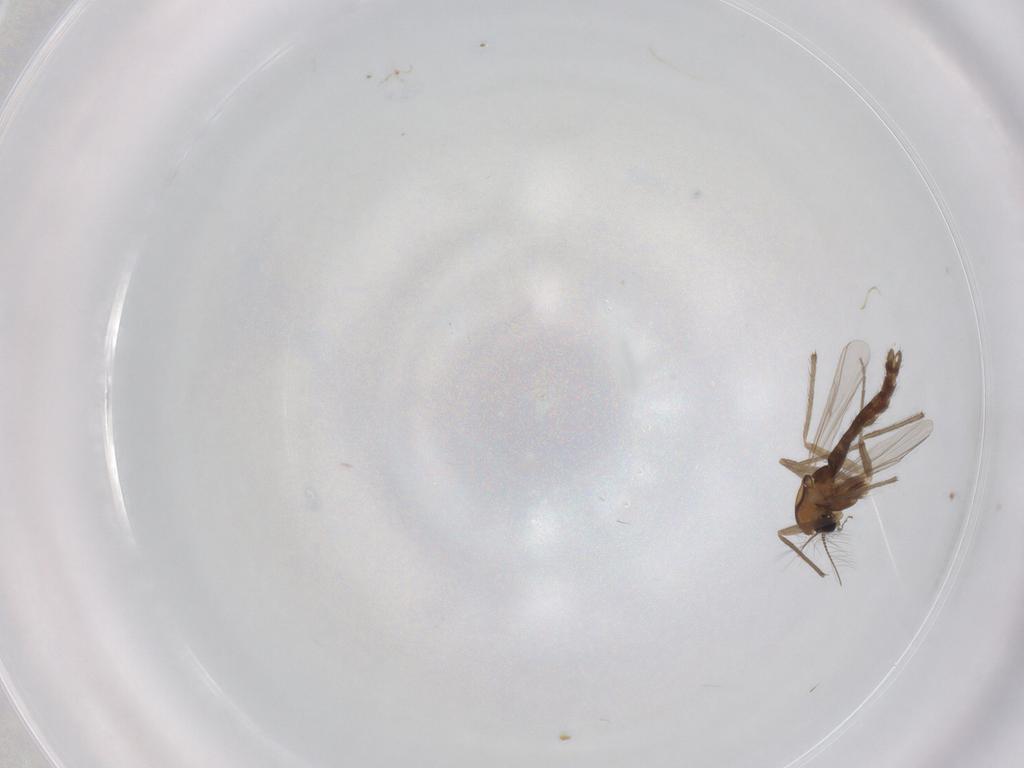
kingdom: Animalia
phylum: Arthropoda
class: Insecta
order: Diptera
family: Chironomidae
